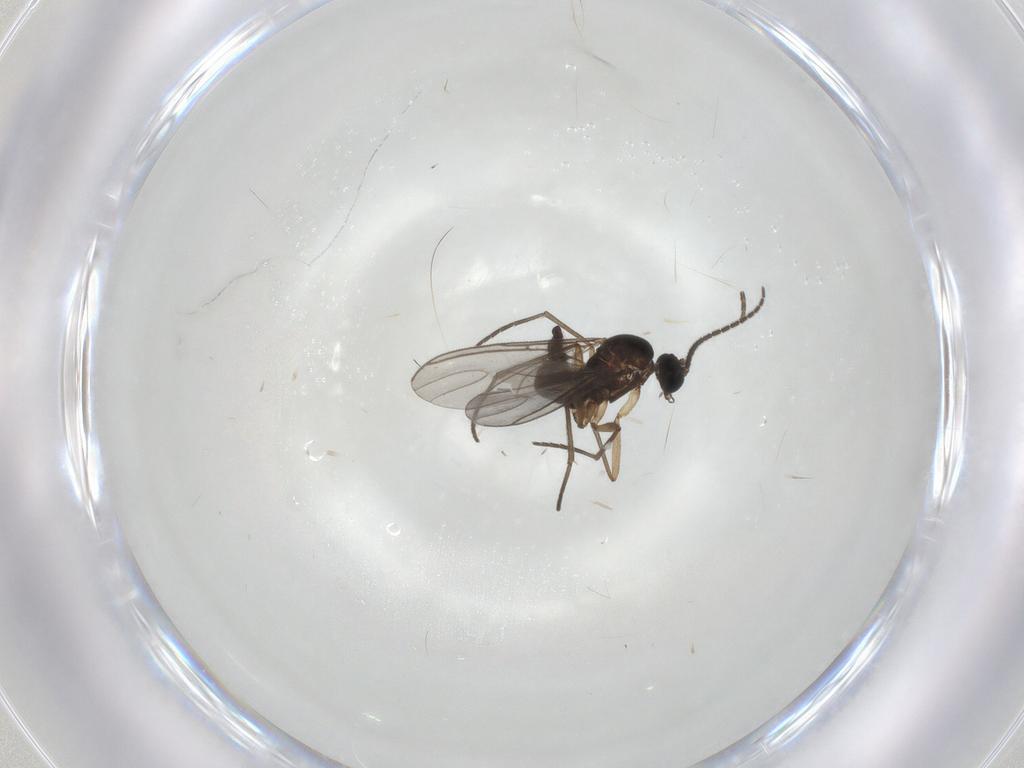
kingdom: Animalia
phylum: Arthropoda
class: Insecta
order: Diptera
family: Sciaridae
